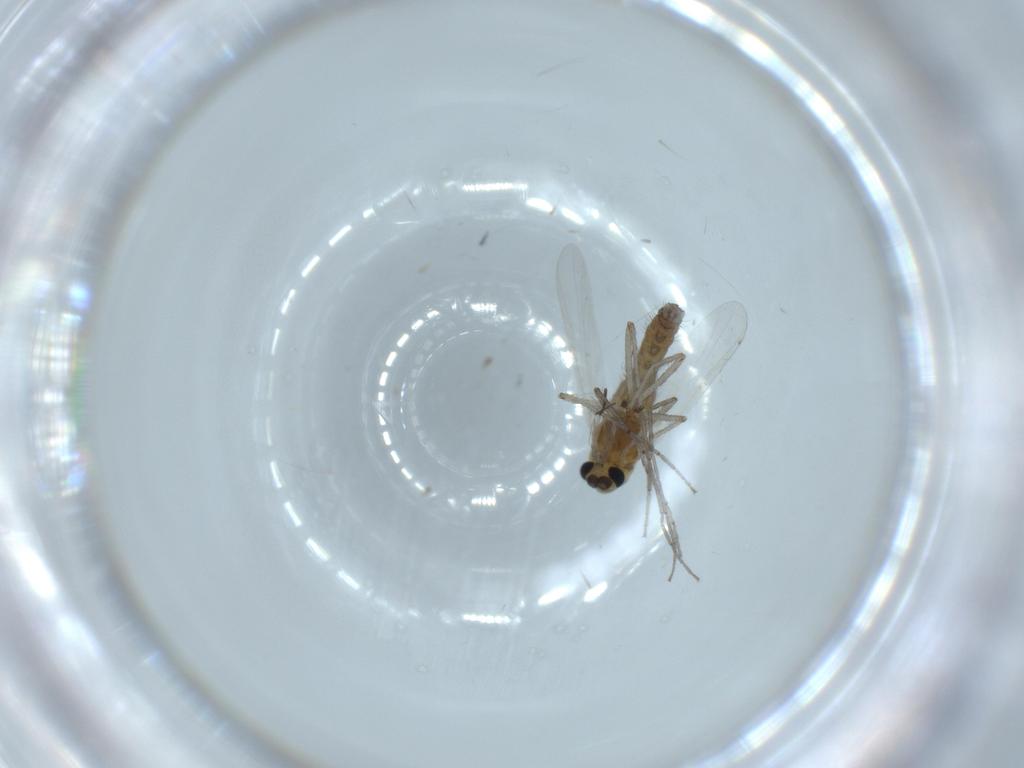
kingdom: Animalia
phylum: Arthropoda
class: Insecta
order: Diptera
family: Chironomidae
